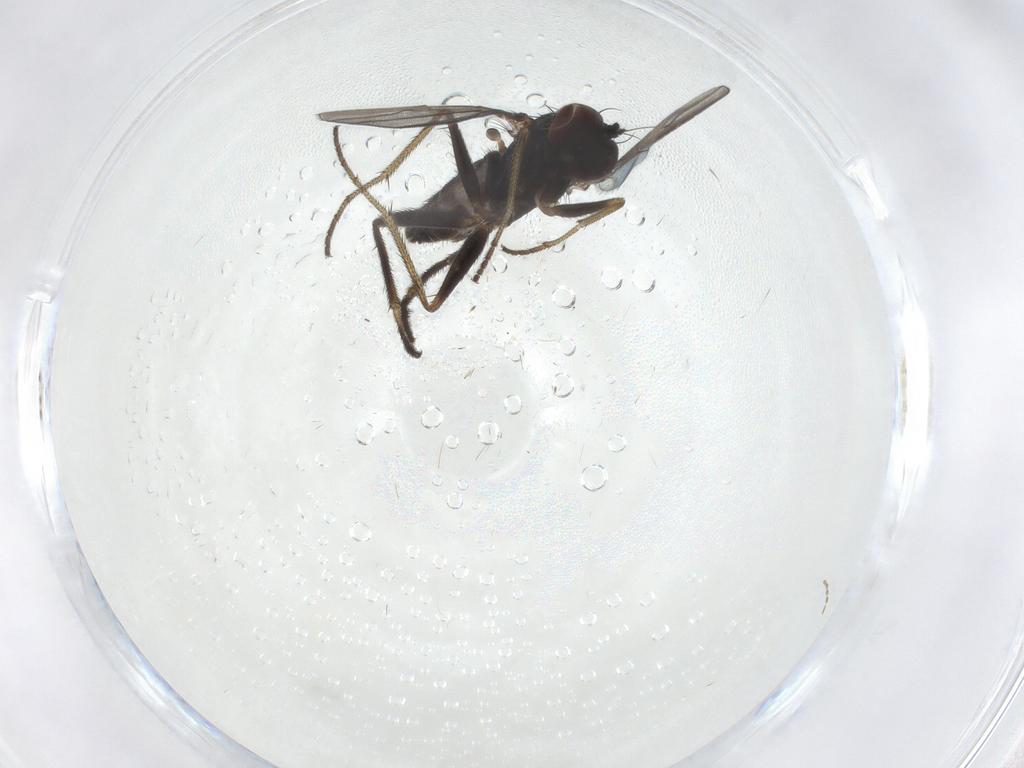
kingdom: Animalia
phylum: Arthropoda
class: Insecta
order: Diptera
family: Dolichopodidae
